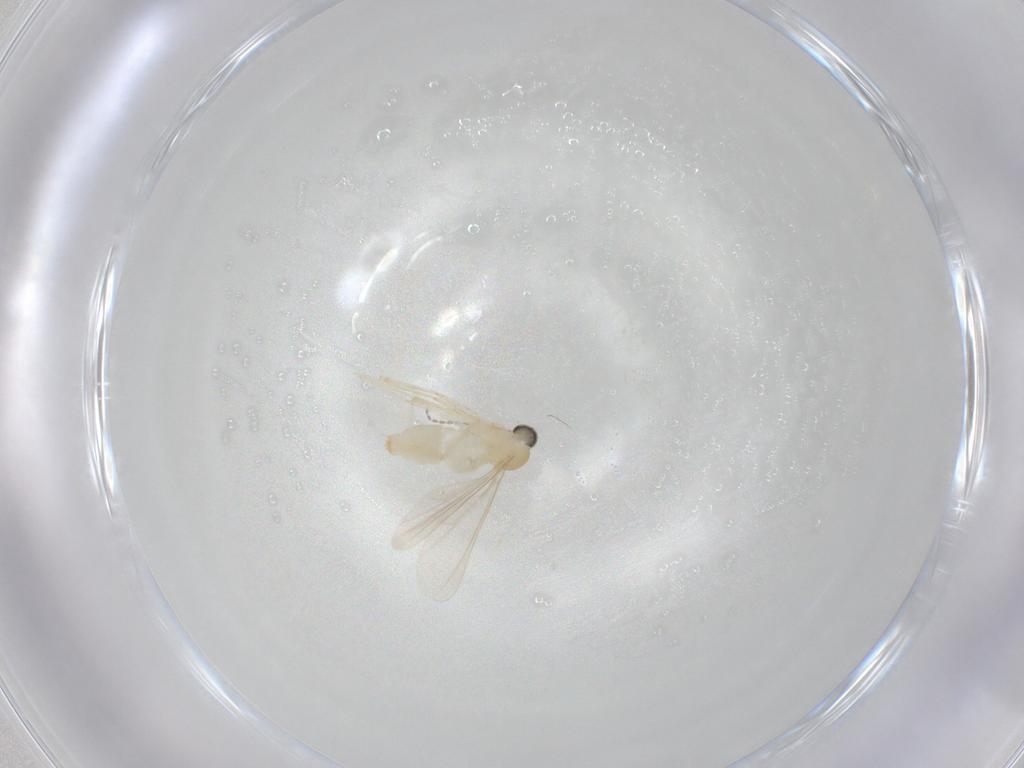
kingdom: Animalia
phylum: Arthropoda
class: Insecta
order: Diptera
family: Cecidomyiidae
